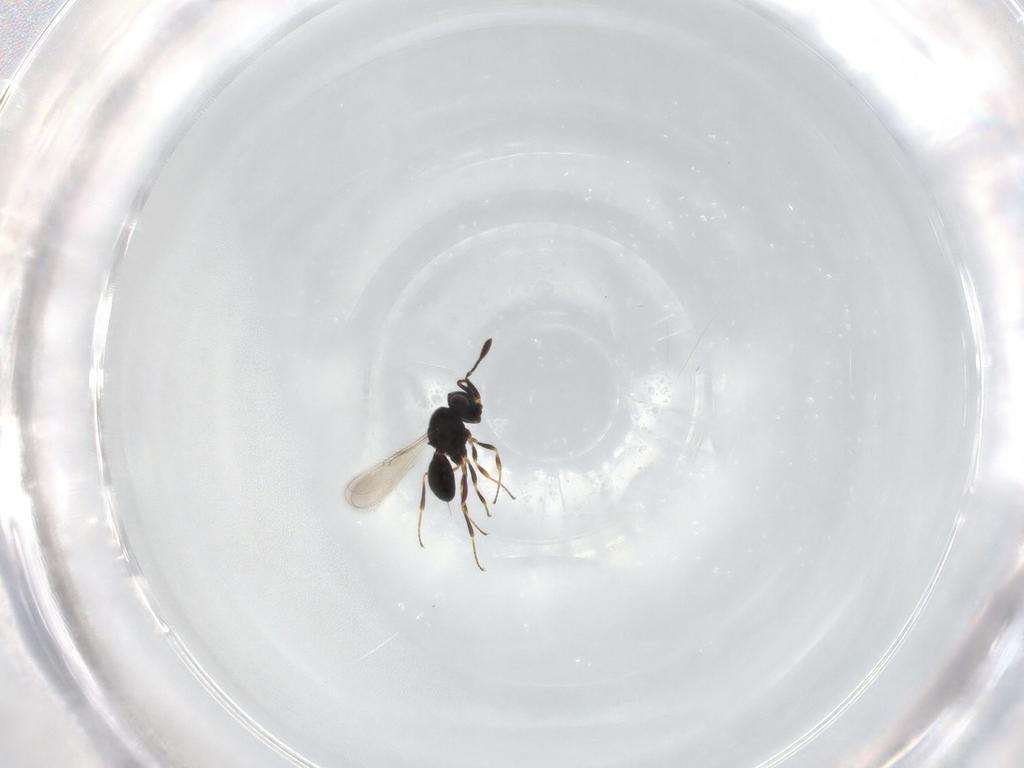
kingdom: Animalia
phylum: Arthropoda
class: Insecta
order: Hymenoptera
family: Scelionidae
